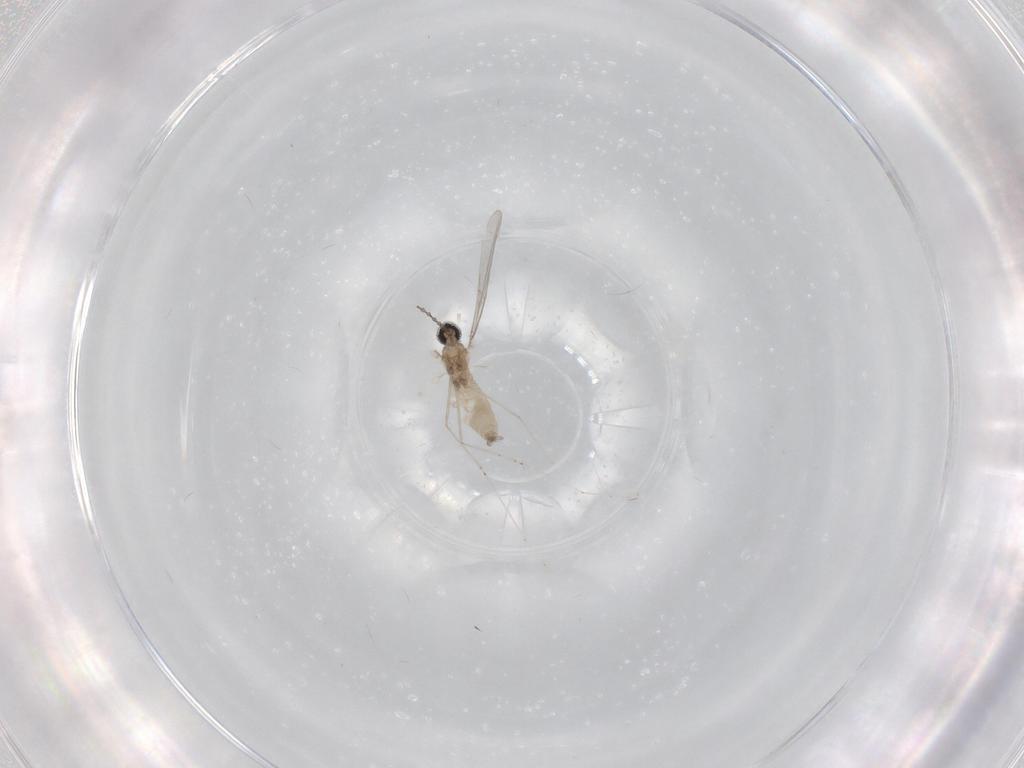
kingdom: Animalia
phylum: Arthropoda
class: Insecta
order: Diptera
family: Cecidomyiidae
